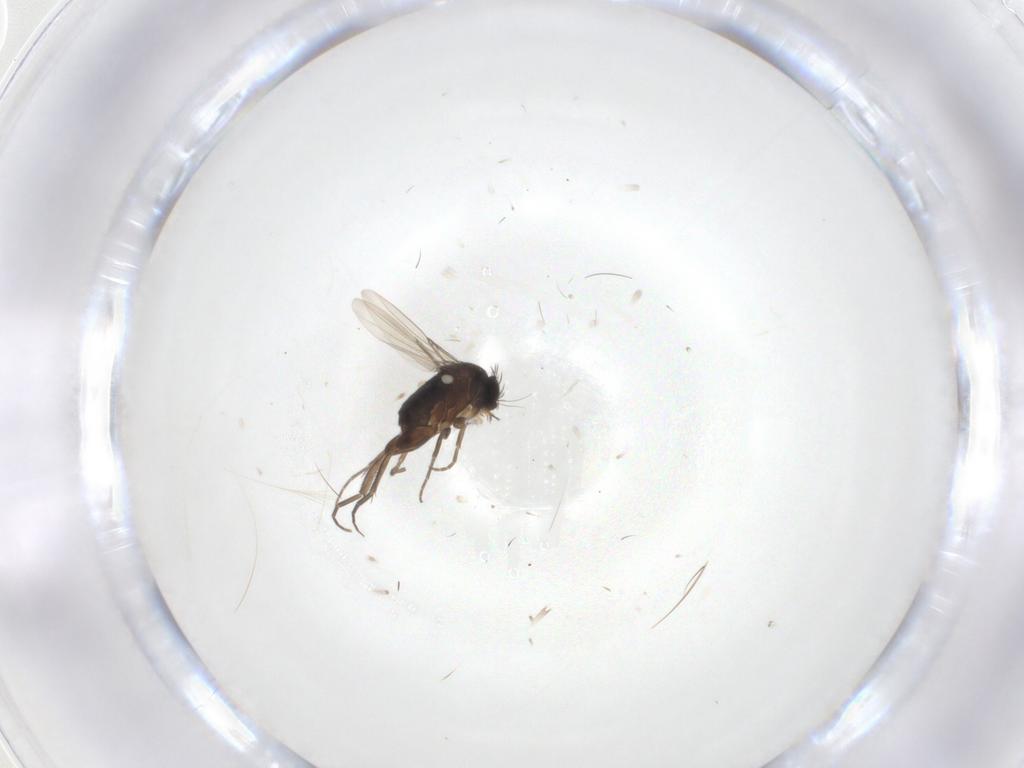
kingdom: Animalia
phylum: Arthropoda
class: Insecta
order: Diptera
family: Phoridae
